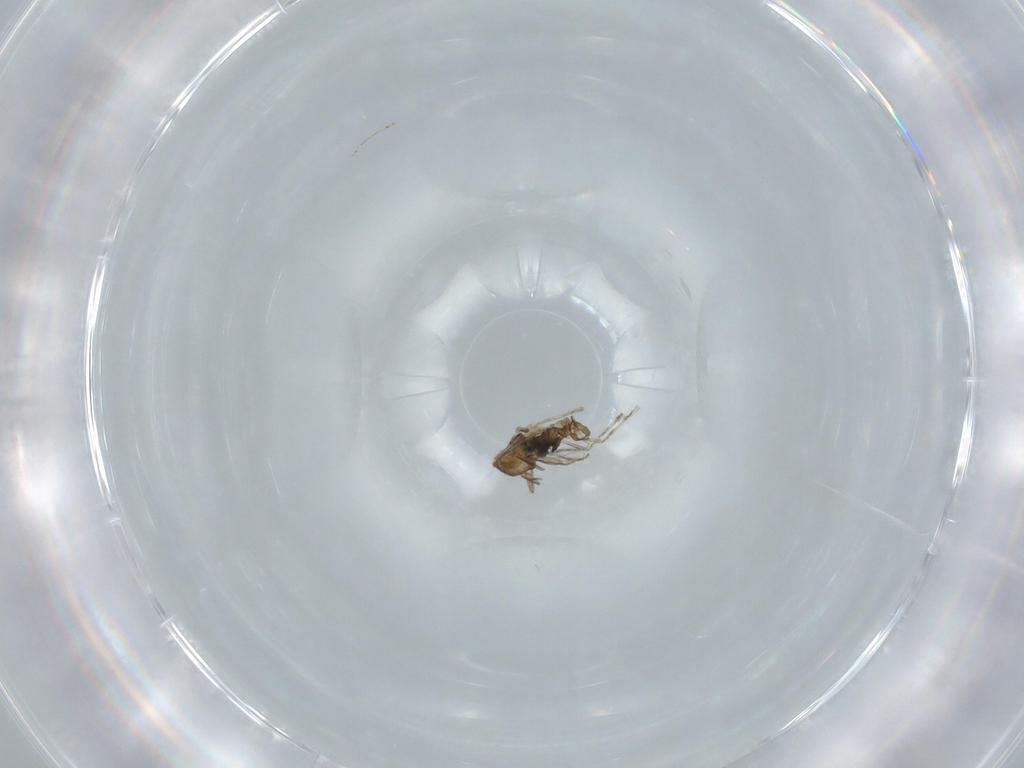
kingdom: Animalia
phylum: Arthropoda
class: Insecta
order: Diptera
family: Cecidomyiidae
